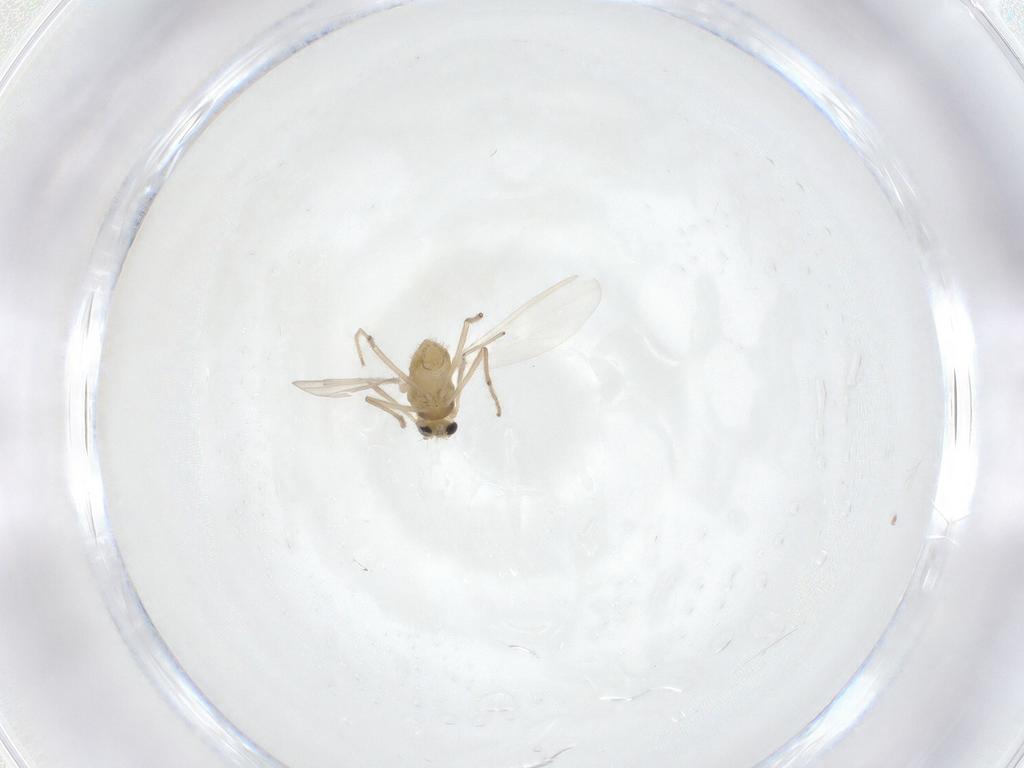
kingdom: Animalia
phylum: Arthropoda
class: Insecta
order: Diptera
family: Chironomidae
